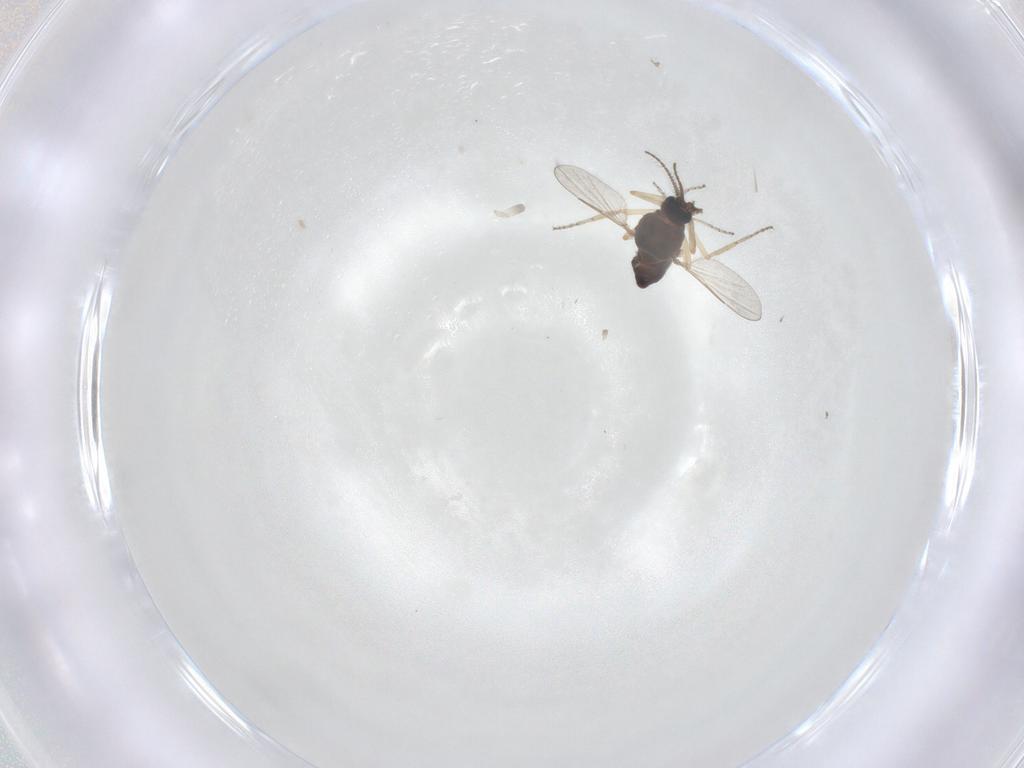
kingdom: Animalia
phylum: Arthropoda
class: Insecta
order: Diptera
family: Ceratopogonidae
